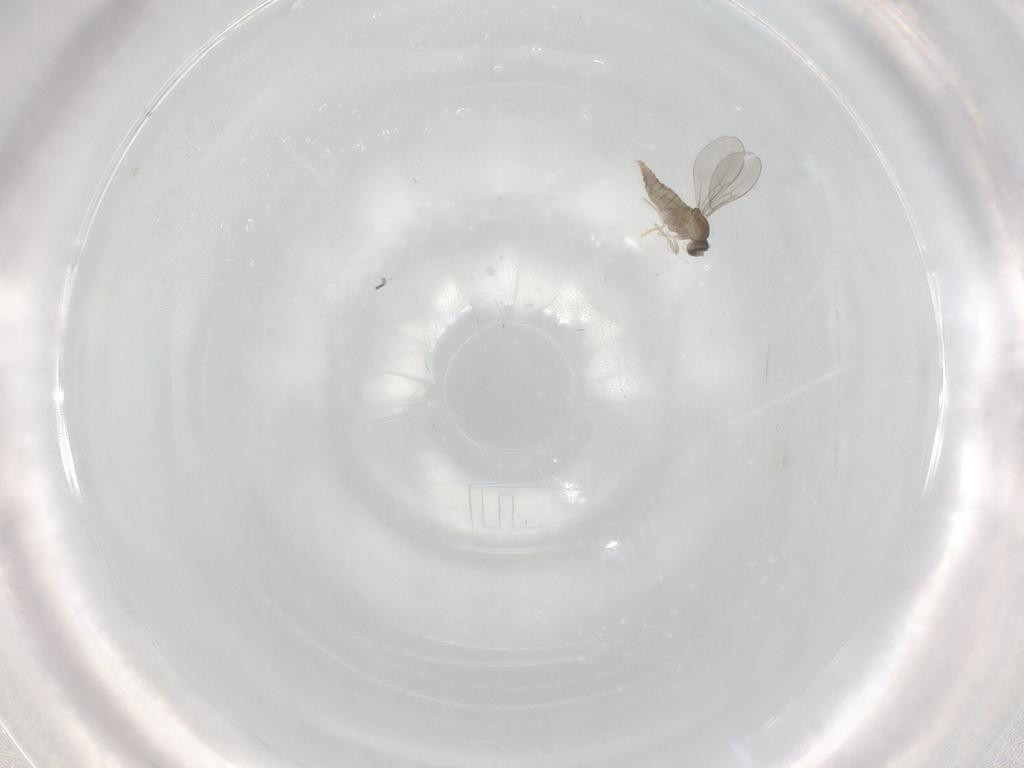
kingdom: Animalia
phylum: Arthropoda
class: Insecta
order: Diptera
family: Cecidomyiidae
